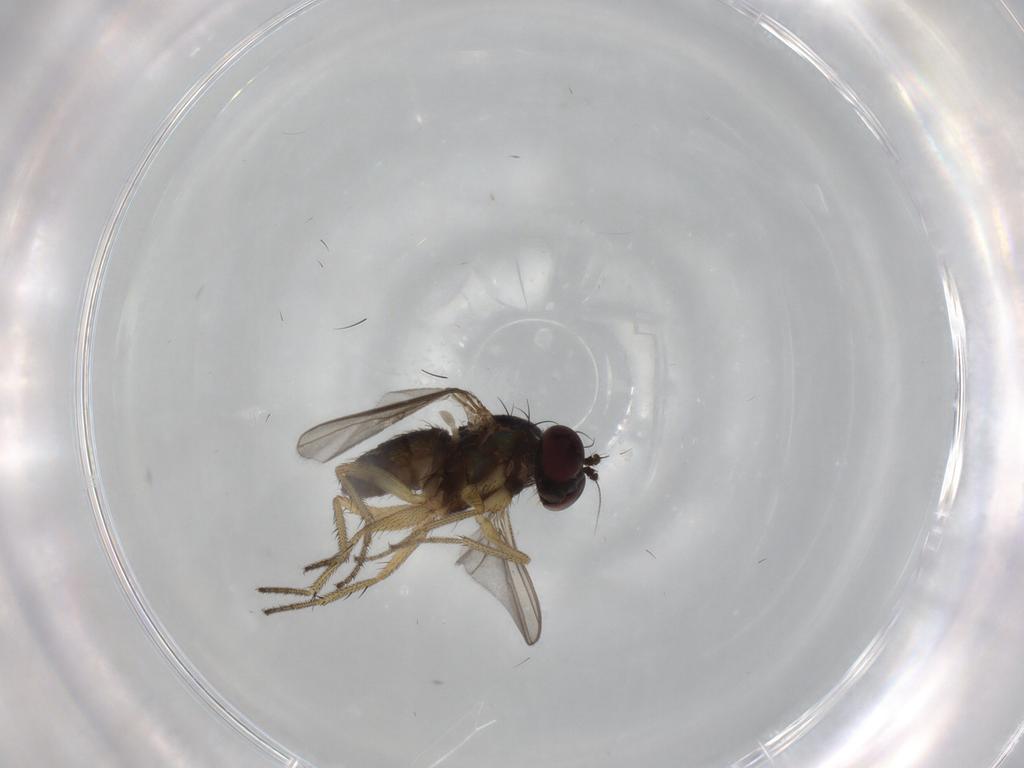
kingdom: Animalia
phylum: Arthropoda
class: Insecta
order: Diptera
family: Dolichopodidae
